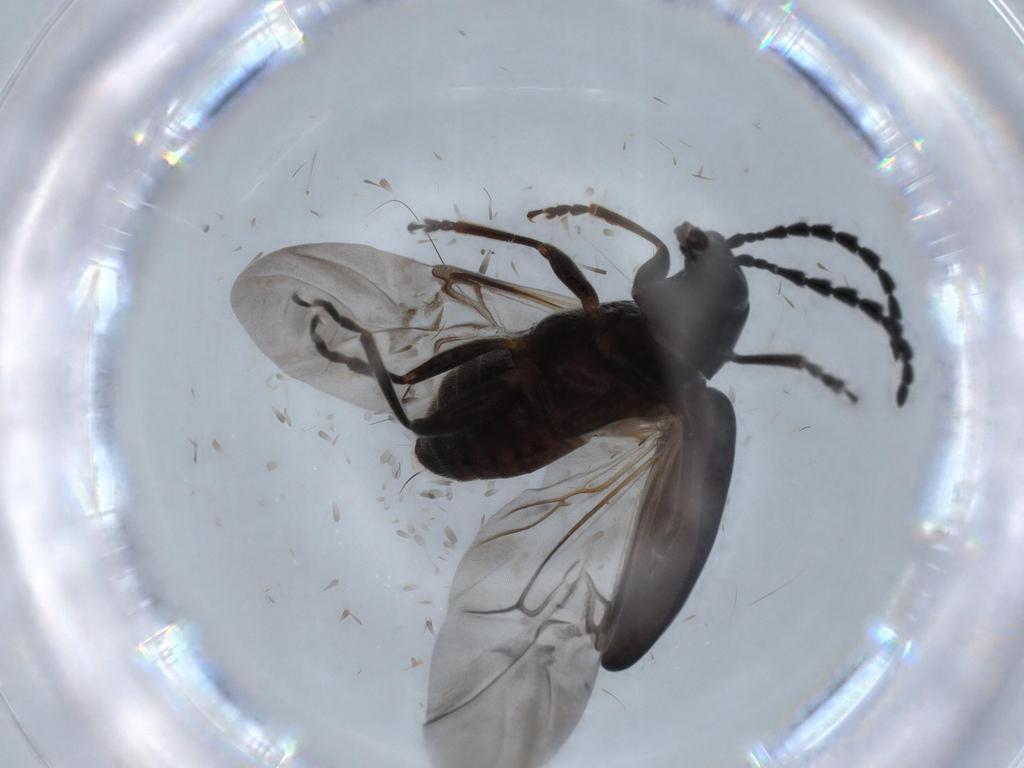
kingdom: Animalia
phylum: Arthropoda
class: Insecta
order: Coleoptera
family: Chrysomelidae
